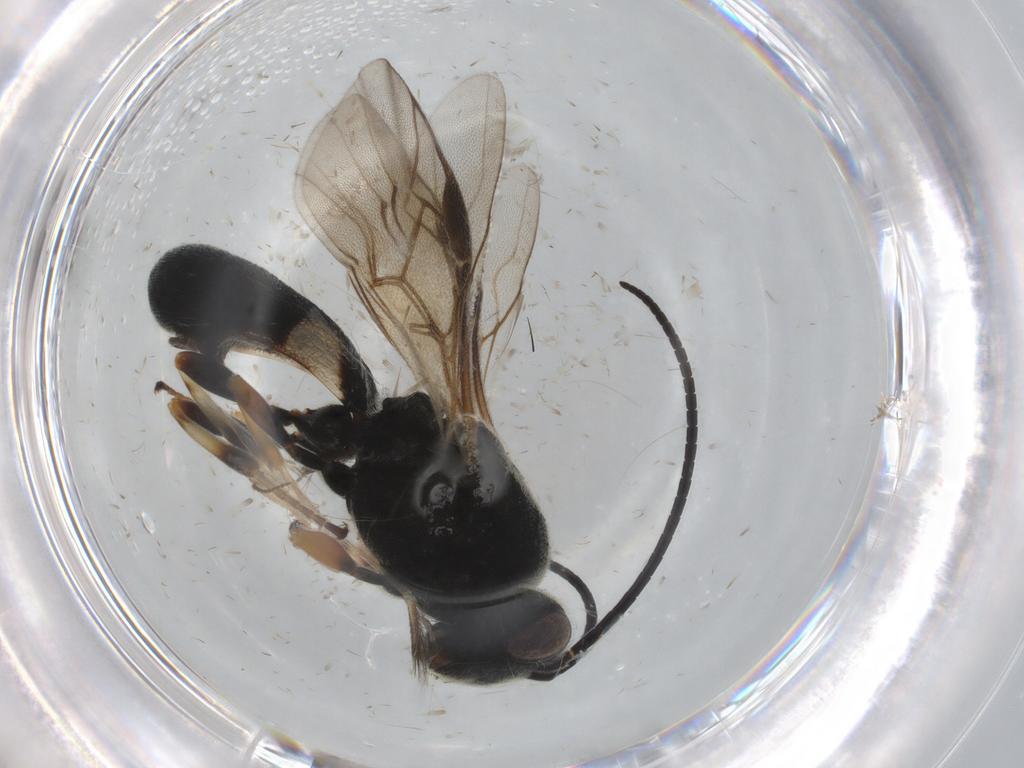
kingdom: Animalia
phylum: Arthropoda
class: Insecta
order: Hymenoptera
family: Braconidae
